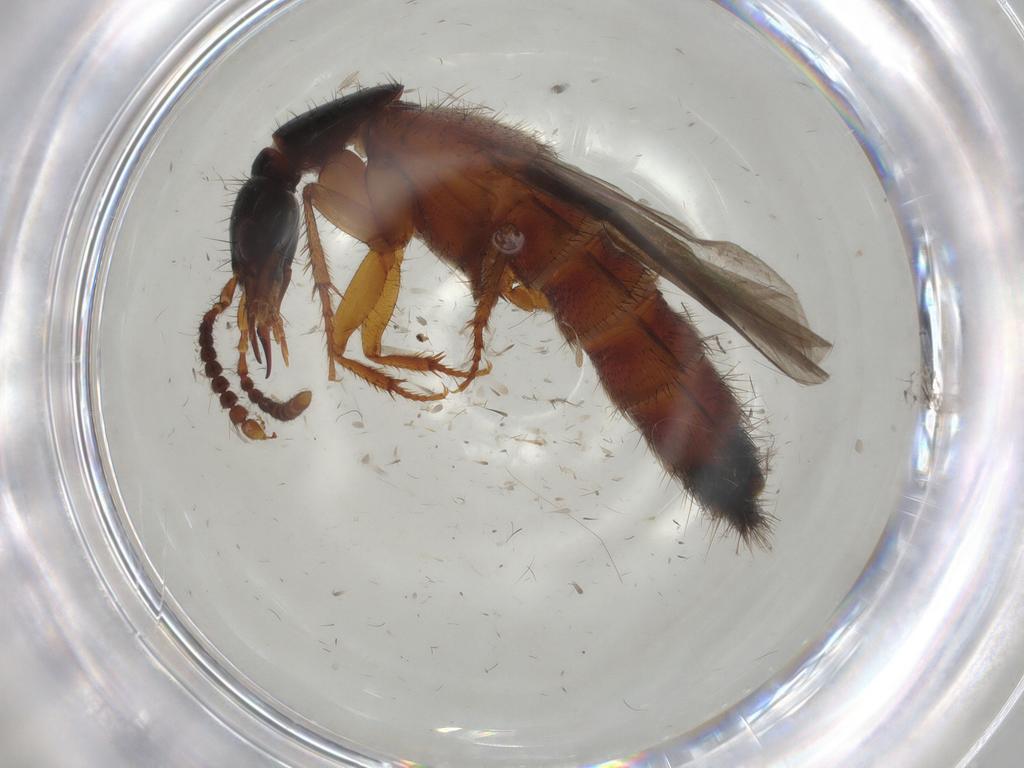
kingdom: Animalia
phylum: Arthropoda
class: Insecta
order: Coleoptera
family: Staphylinidae
